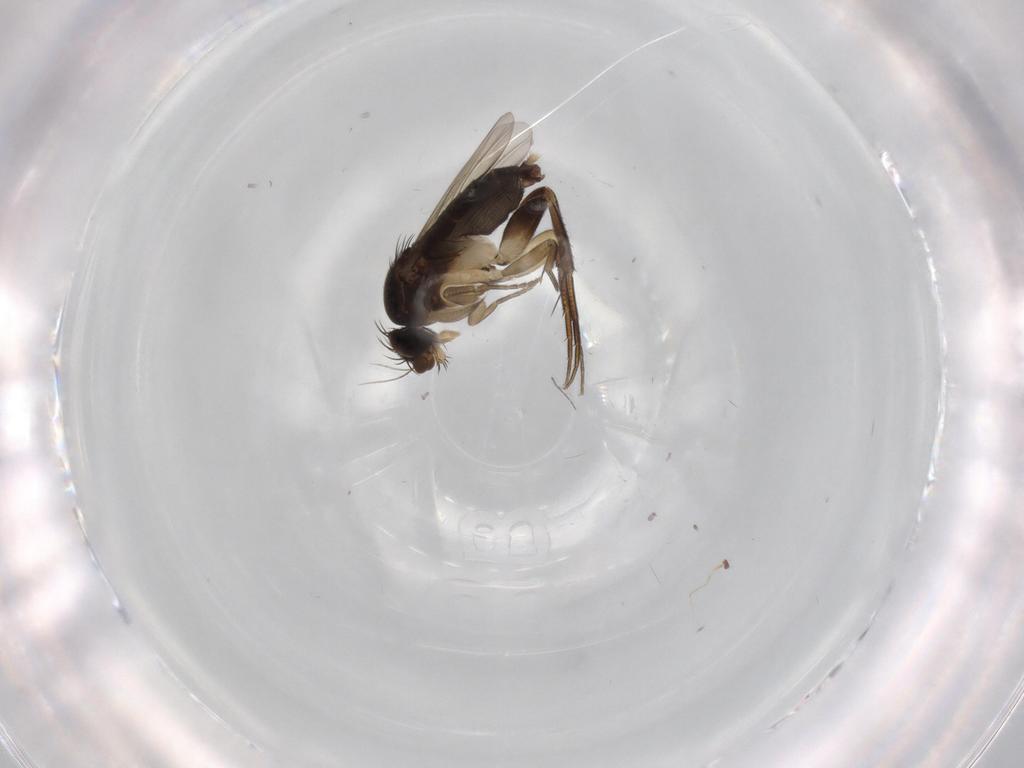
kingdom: Animalia
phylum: Arthropoda
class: Insecta
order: Diptera
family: Phoridae
